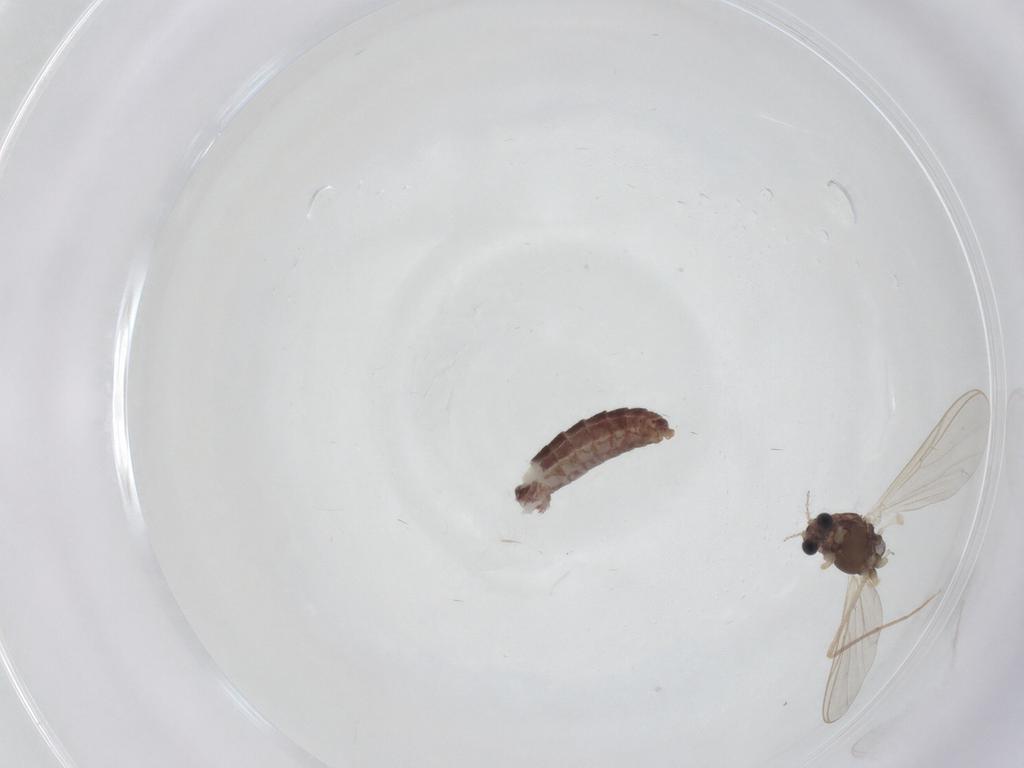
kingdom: Animalia
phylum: Arthropoda
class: Insecta
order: Diptera
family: Chironomidae
